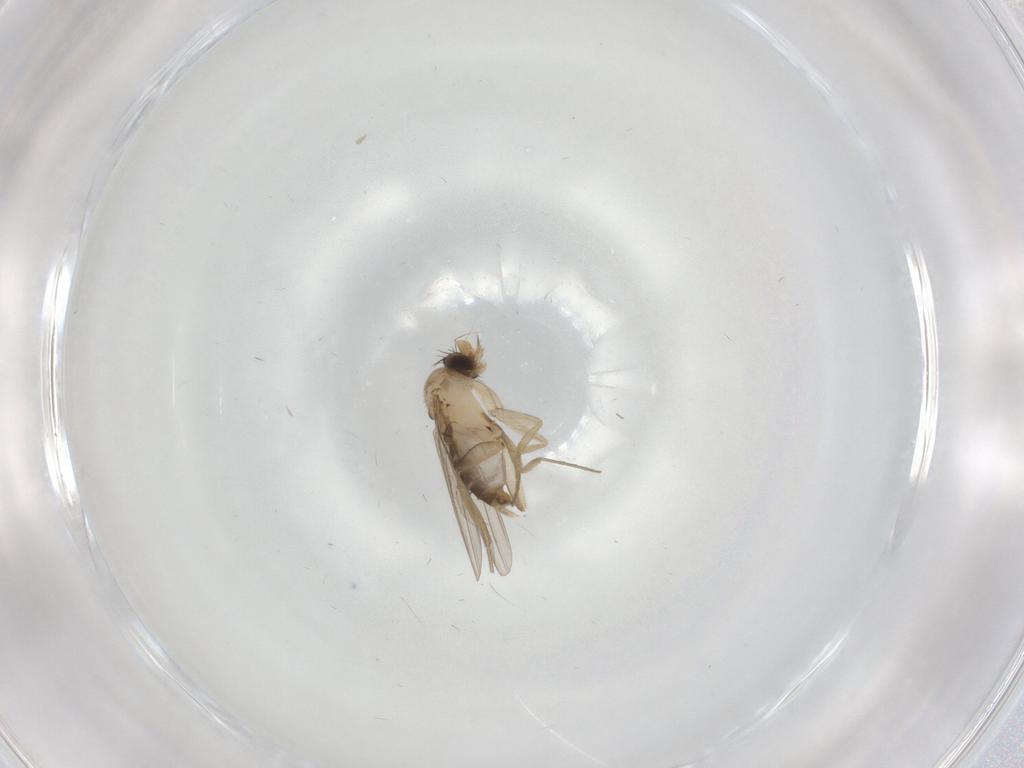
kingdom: Animalia
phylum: Arthropoda
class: Insecta
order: Diptera
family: Phoridae
